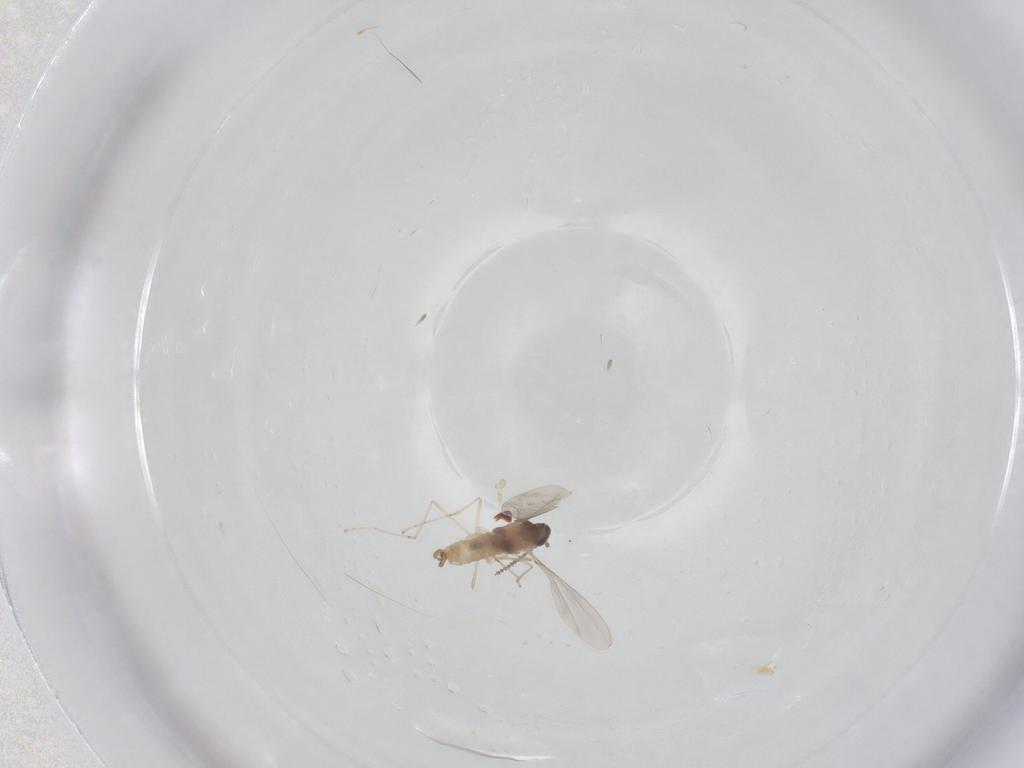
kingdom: Animalia
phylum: Arthropoda
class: Insecta
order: Diptera
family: Cecidomyiidae
